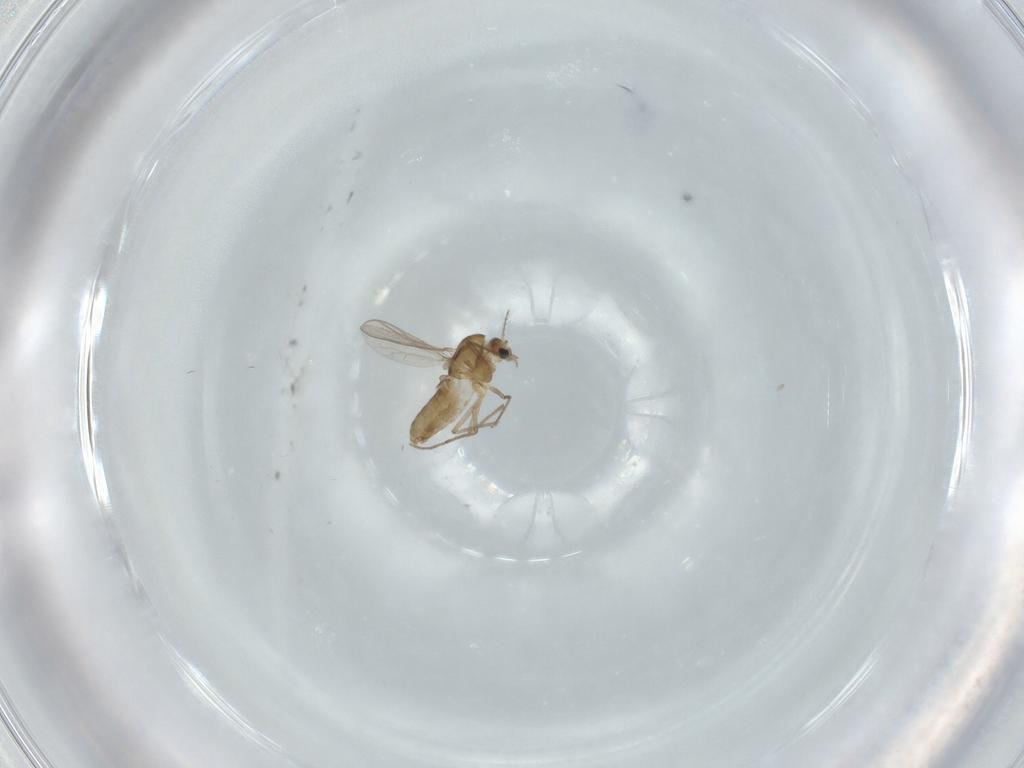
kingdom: Animalia
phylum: Arthropoda
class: Insecta
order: Diptera
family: Chironomidae
